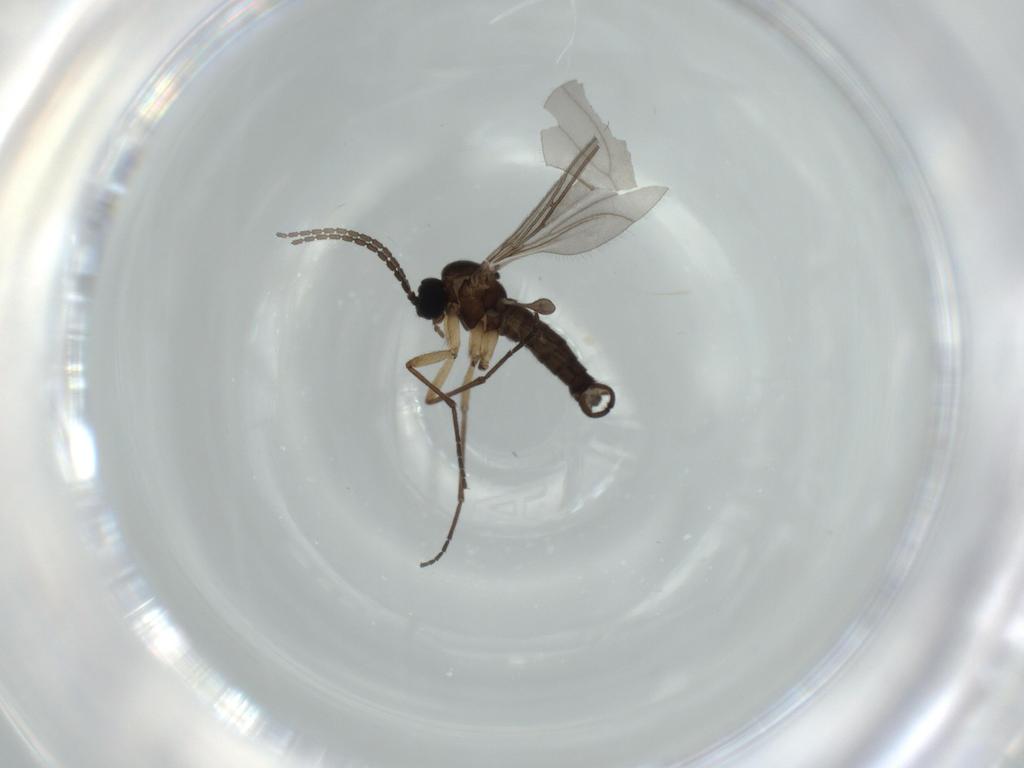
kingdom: Animalia
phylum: Arthropoda
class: Insecta
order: Diptera
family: Sciaridae
